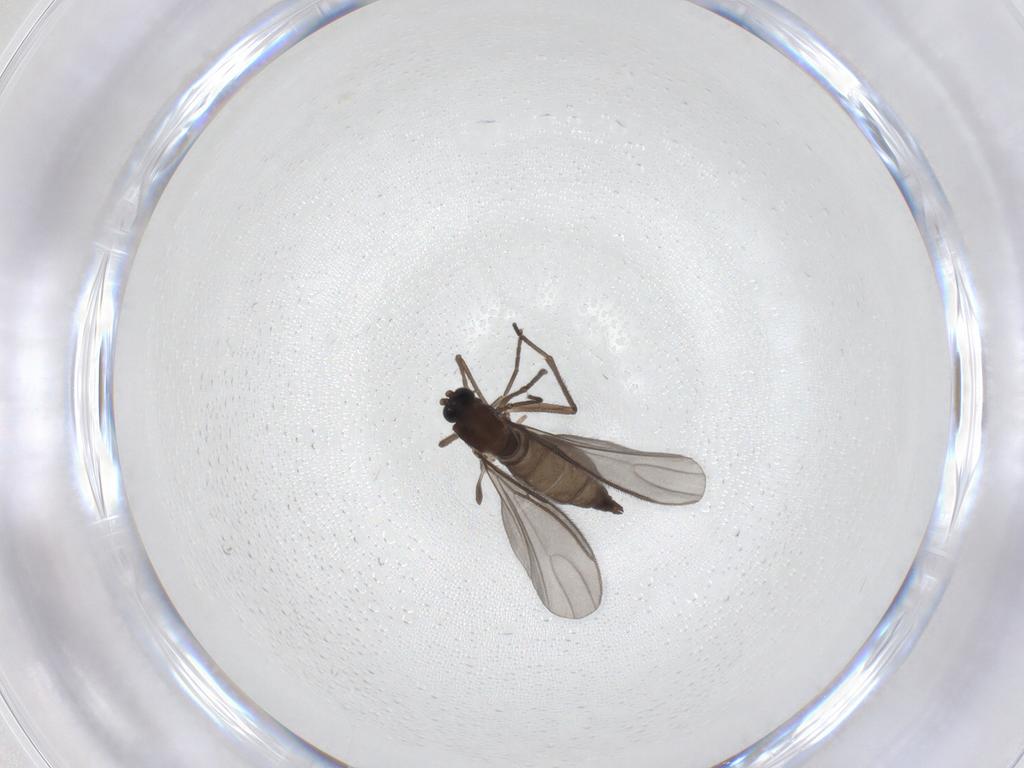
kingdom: Animalia
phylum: Arthropoda
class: Insecta
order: Diptera
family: Sciaridae
